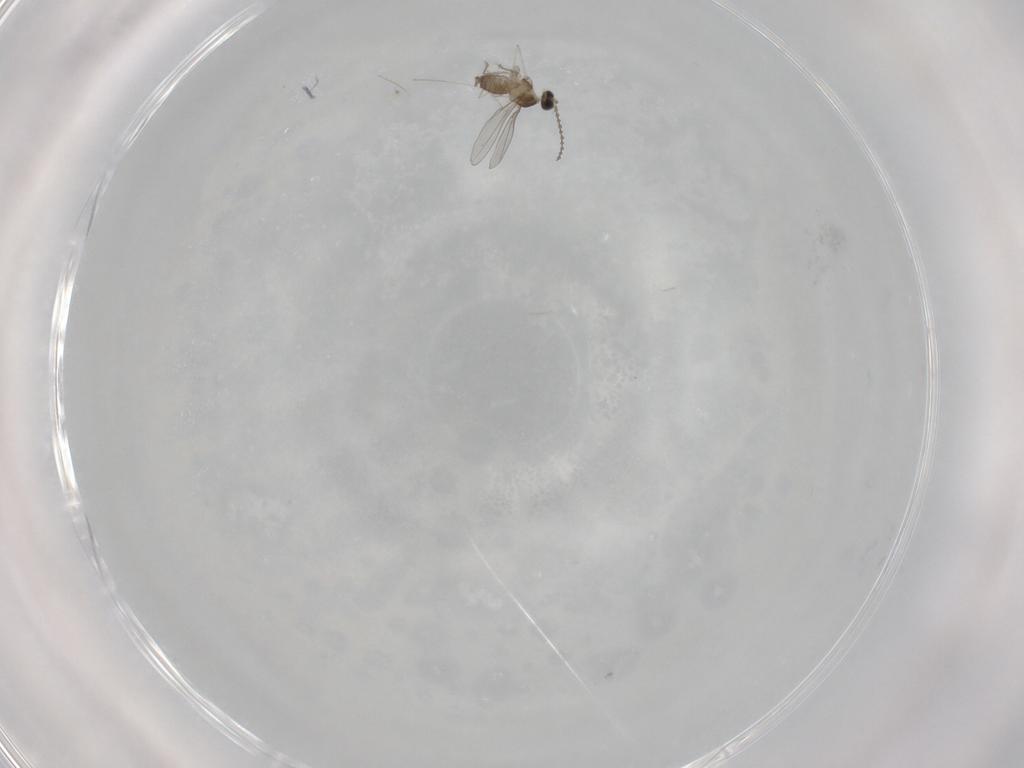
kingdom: Animalia
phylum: Arthropoda
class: Insecta
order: Diptera
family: Cecidomyiidae
